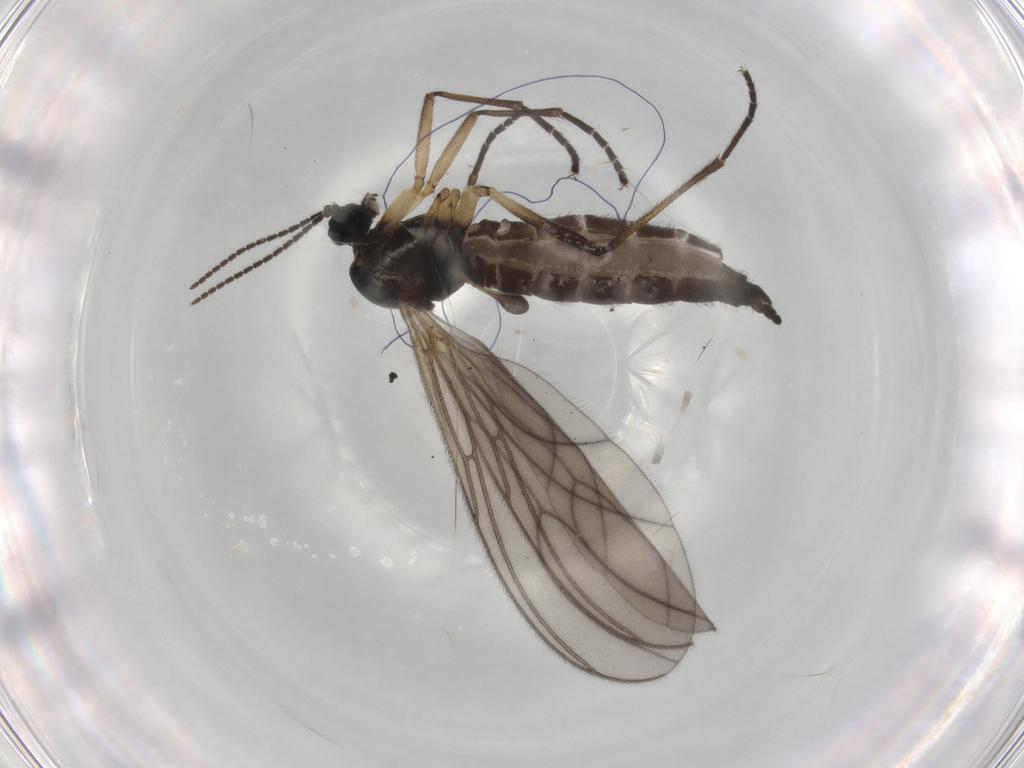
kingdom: Animalia
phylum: Arthropoda
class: Insecta
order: Diptera
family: Sciaridae
